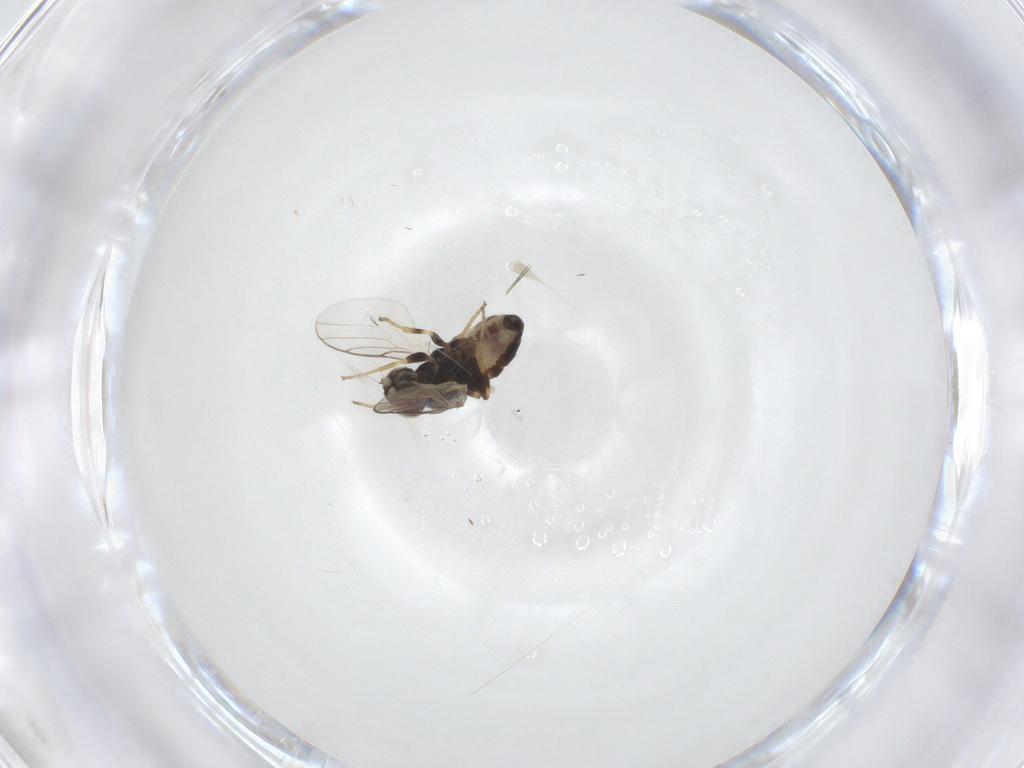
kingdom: Animalia
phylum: Arthropoda
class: Insecta
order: Diptera
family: Chloropidae
